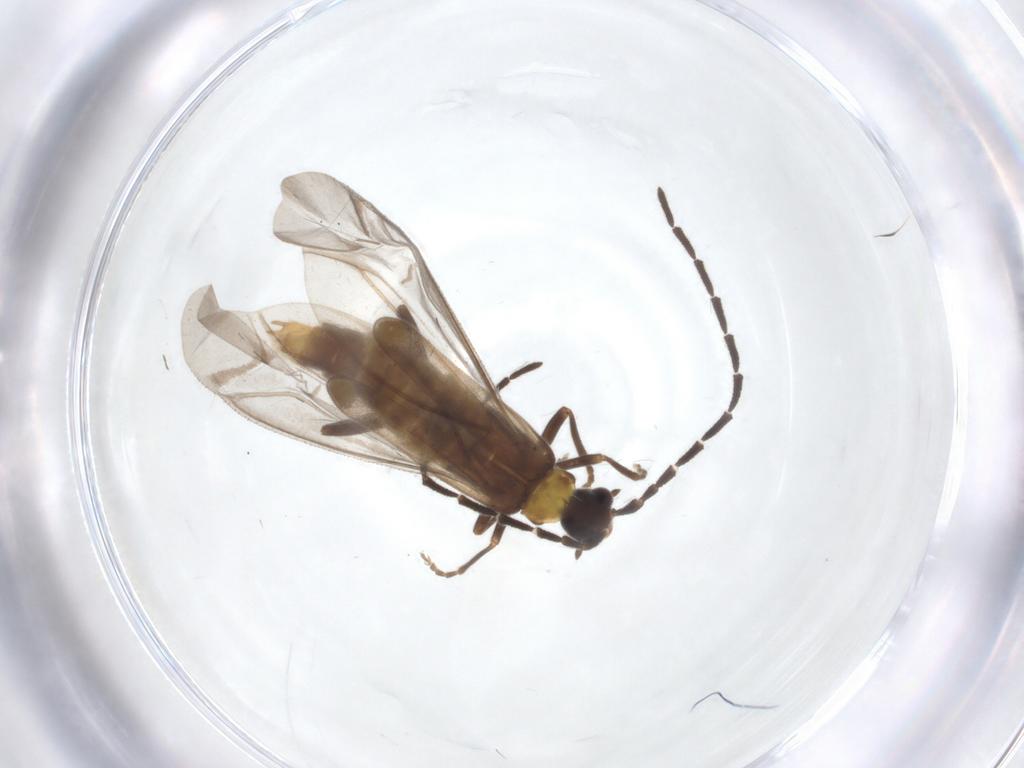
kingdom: Animalia
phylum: Arthropoda
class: Insecta
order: Coleoptera
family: Cantharidae
